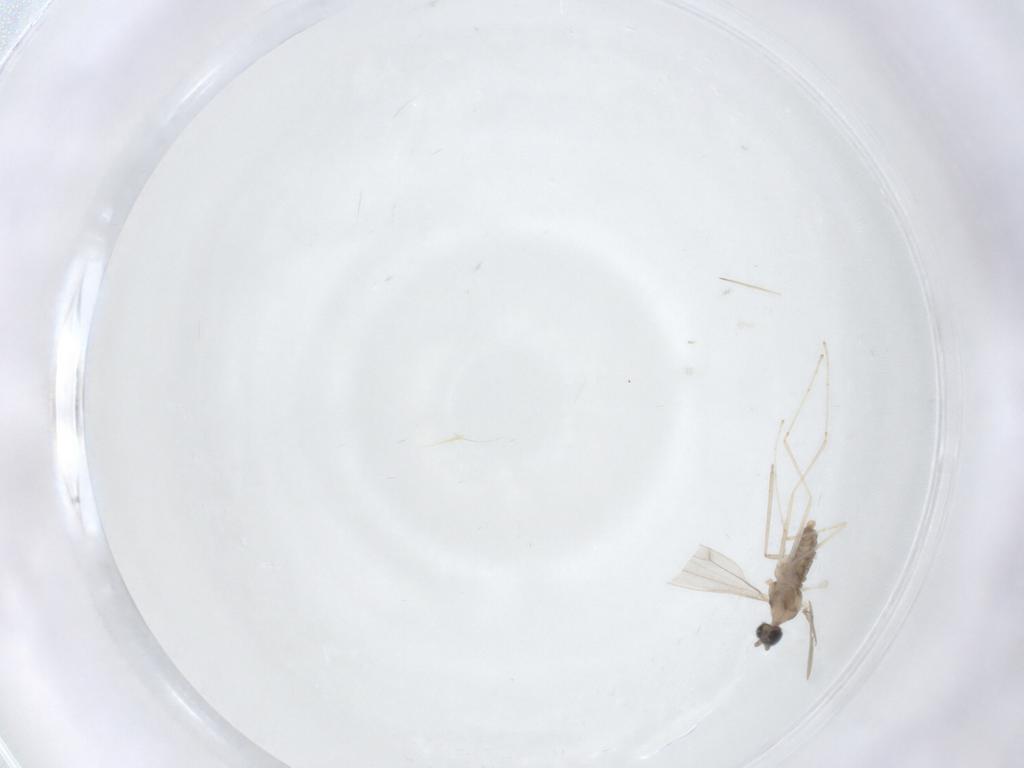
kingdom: Animalia
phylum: Arthropoda
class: Insecta
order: Diptera
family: Cecidomyiidae
